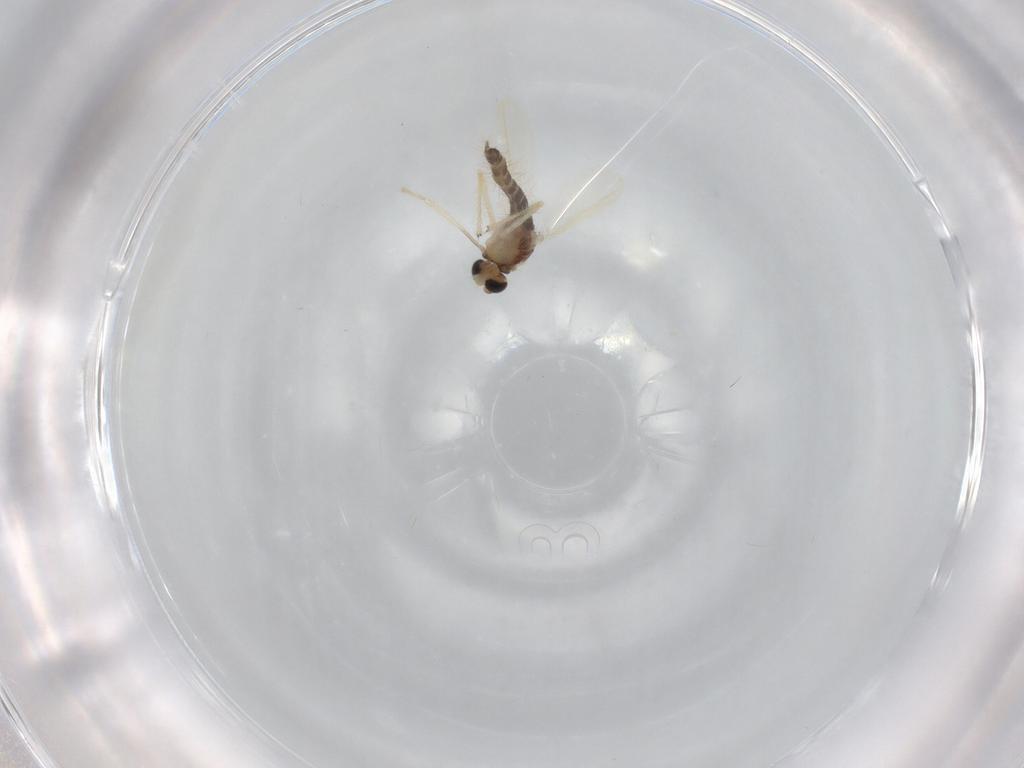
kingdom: Animalia
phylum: Arthropoda
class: Insecta
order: Diptera
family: Chironomidae
